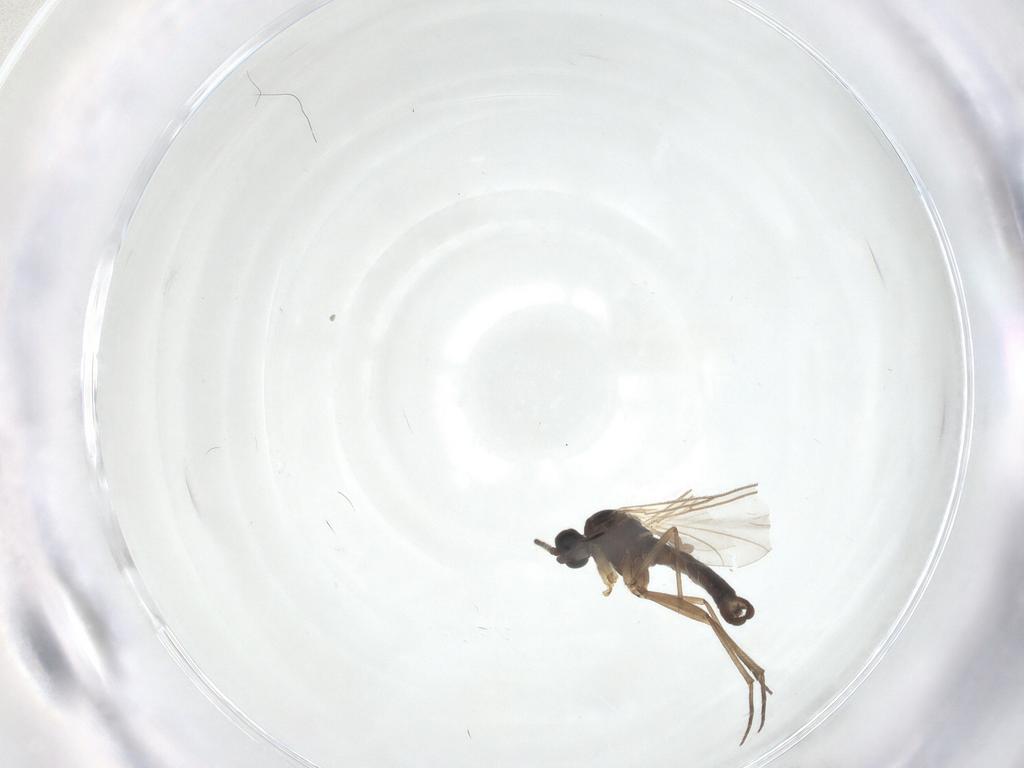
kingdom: Animalia
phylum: Arthropoda
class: Insecta
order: Diptera
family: Sciaridae
